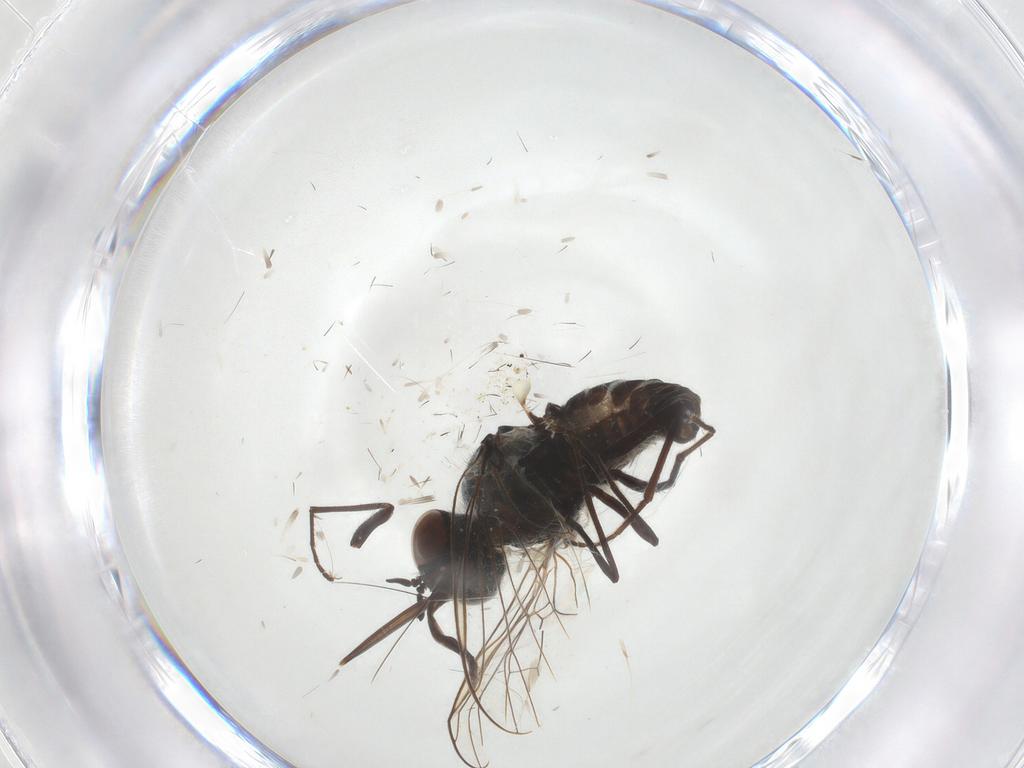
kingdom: Animalia
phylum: Arthropoda
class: Insecta
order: Diptera
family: Syrphidae
